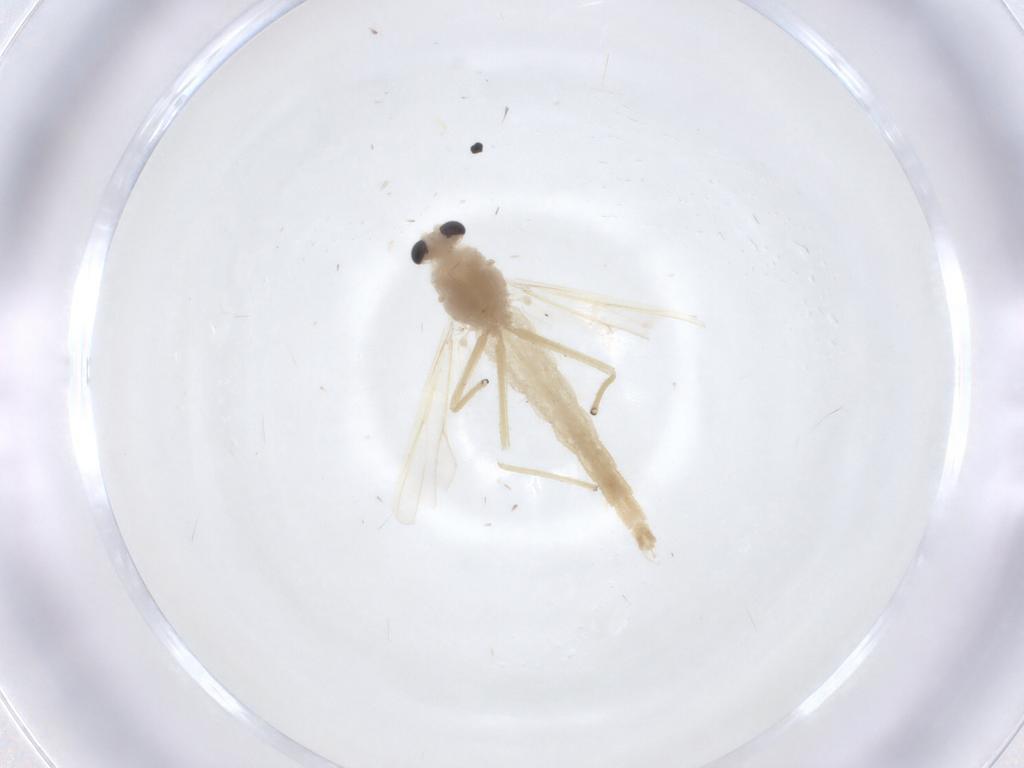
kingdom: Animalia
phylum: Arthropoda
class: Insecta
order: Diptera
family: Chironomidae
